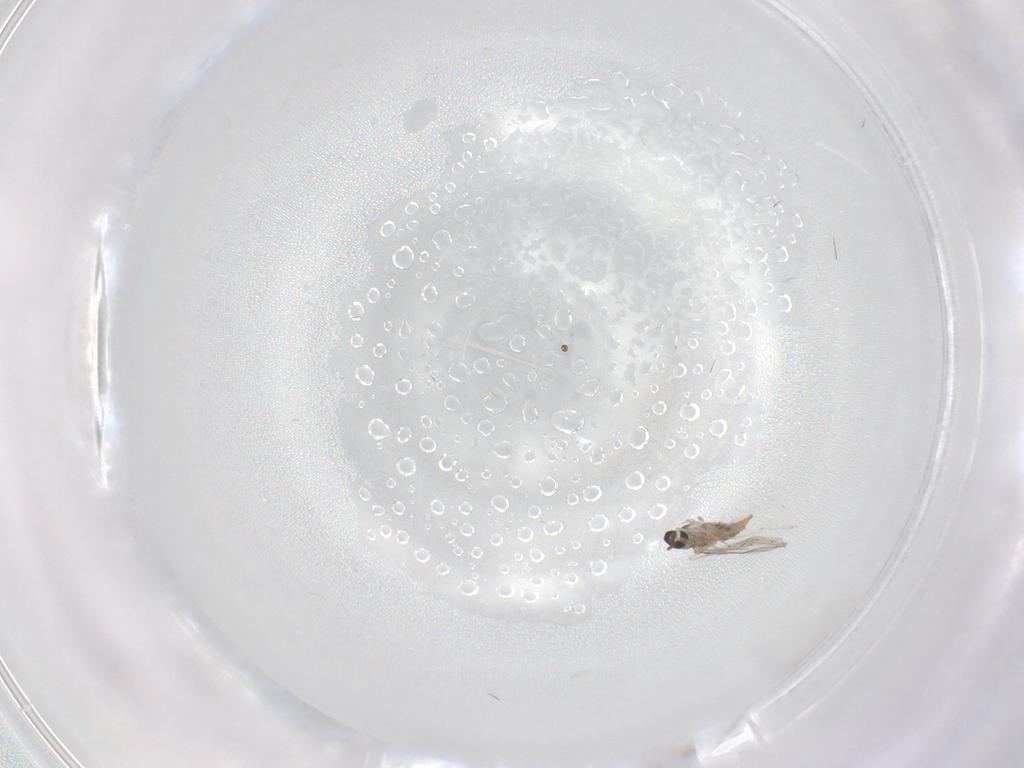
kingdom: Animalia
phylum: Arthropoda
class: Insecta
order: Diptera
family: Cecidomyiidae
